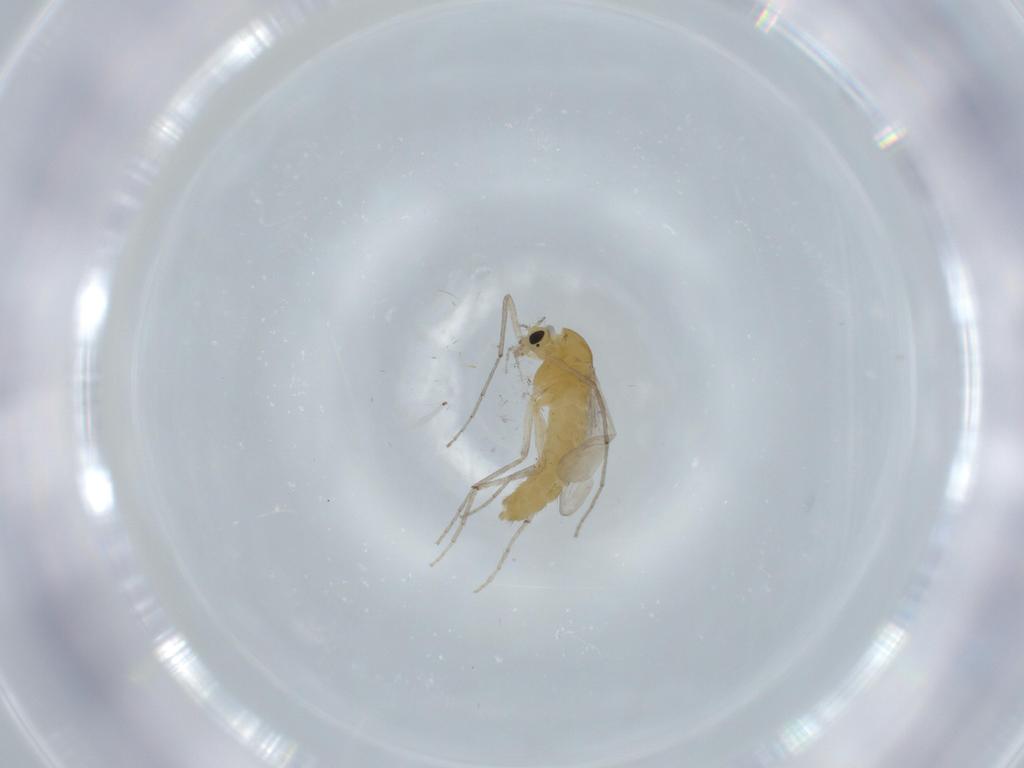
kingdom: Animalia
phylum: Arthropoda
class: Insecta
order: Diptera
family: Chironomidae
